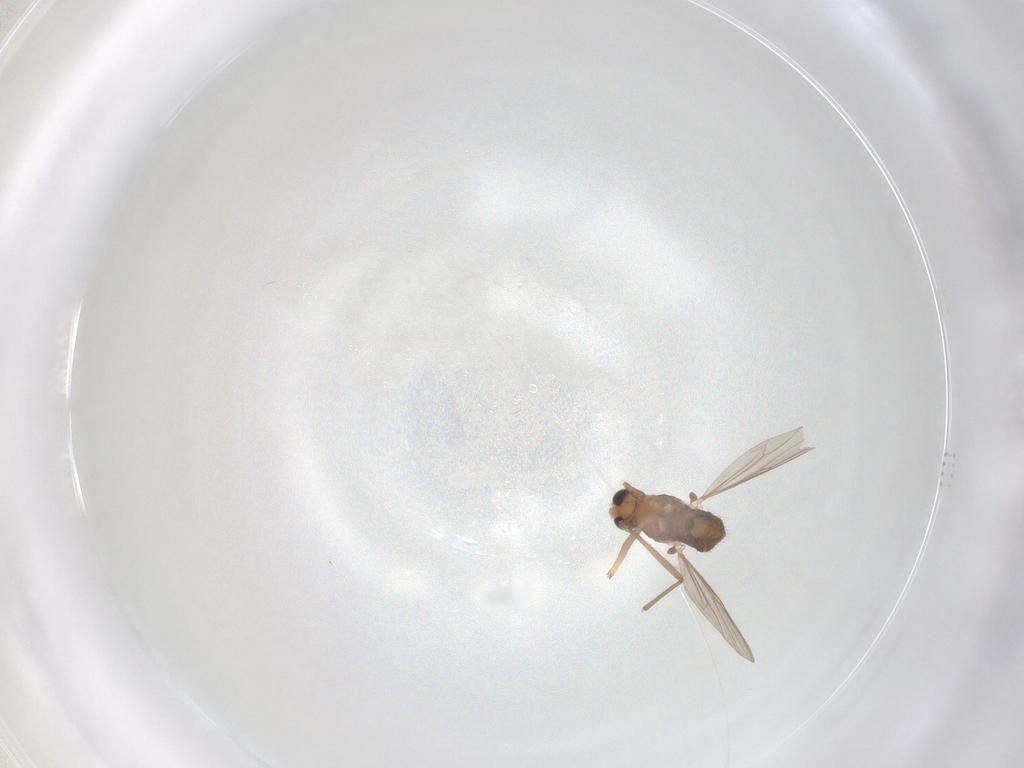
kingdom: Animalia
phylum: Arthropoda
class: Insecta
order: Diptera
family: Chironomidae
